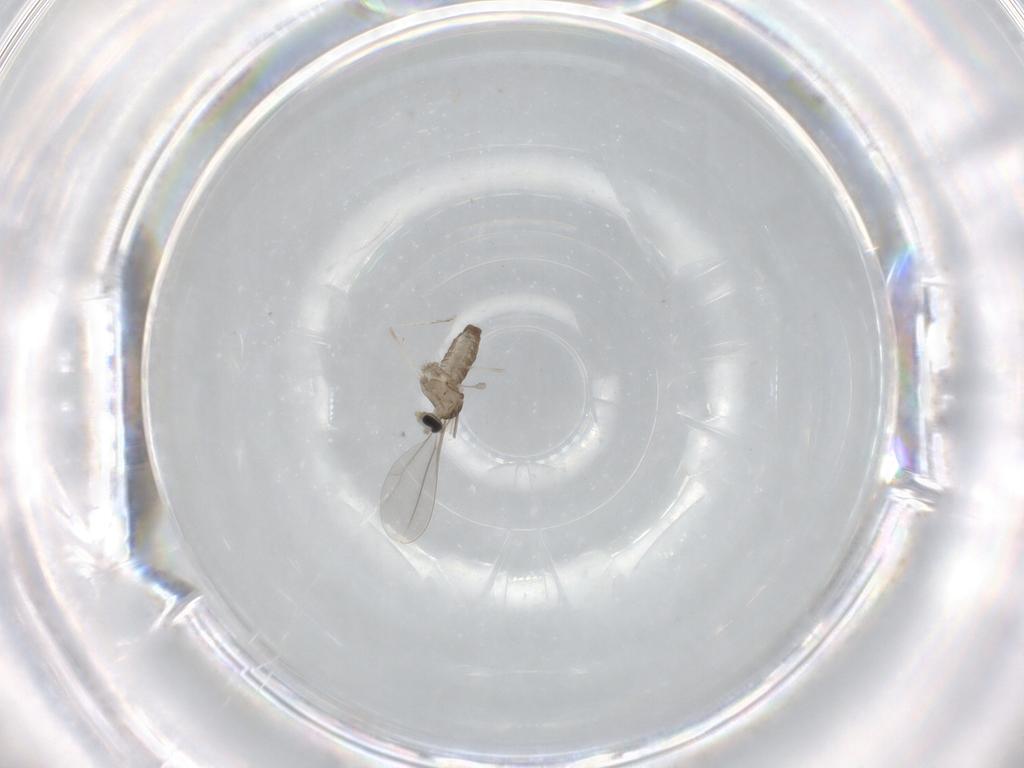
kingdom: Animalia
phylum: Arthropoda
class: Insecta
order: Diptera
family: Cecidomyiidae
